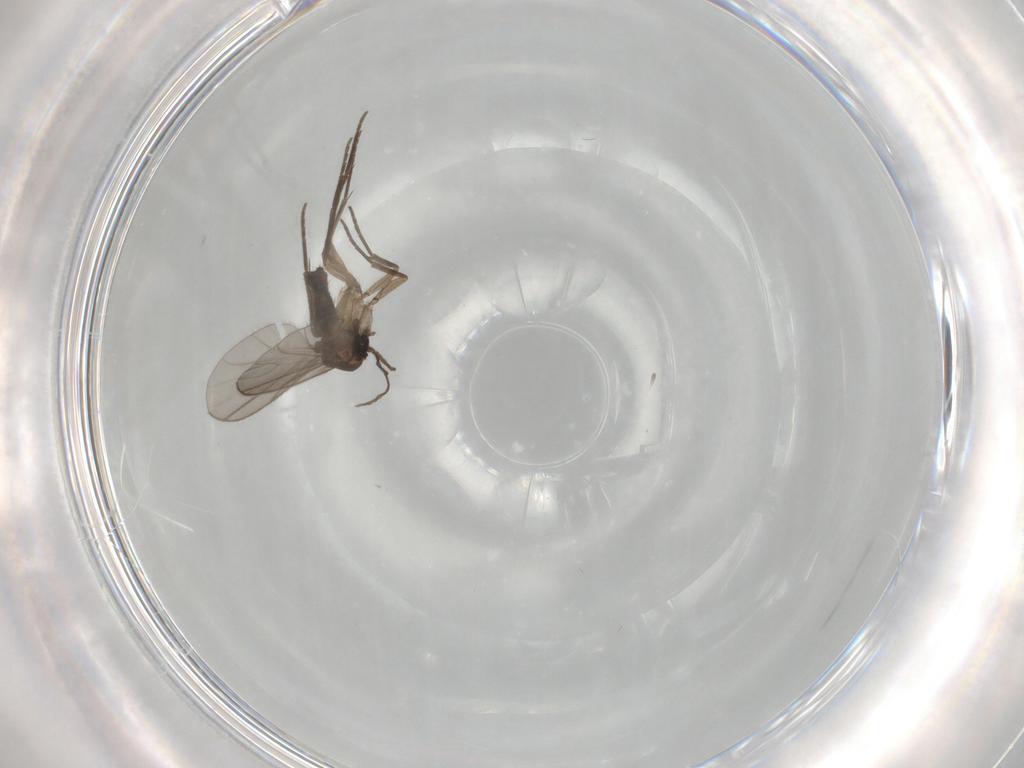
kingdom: Animalia
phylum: Arthropoda
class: Insecta
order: Diptera
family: Sciaridae
